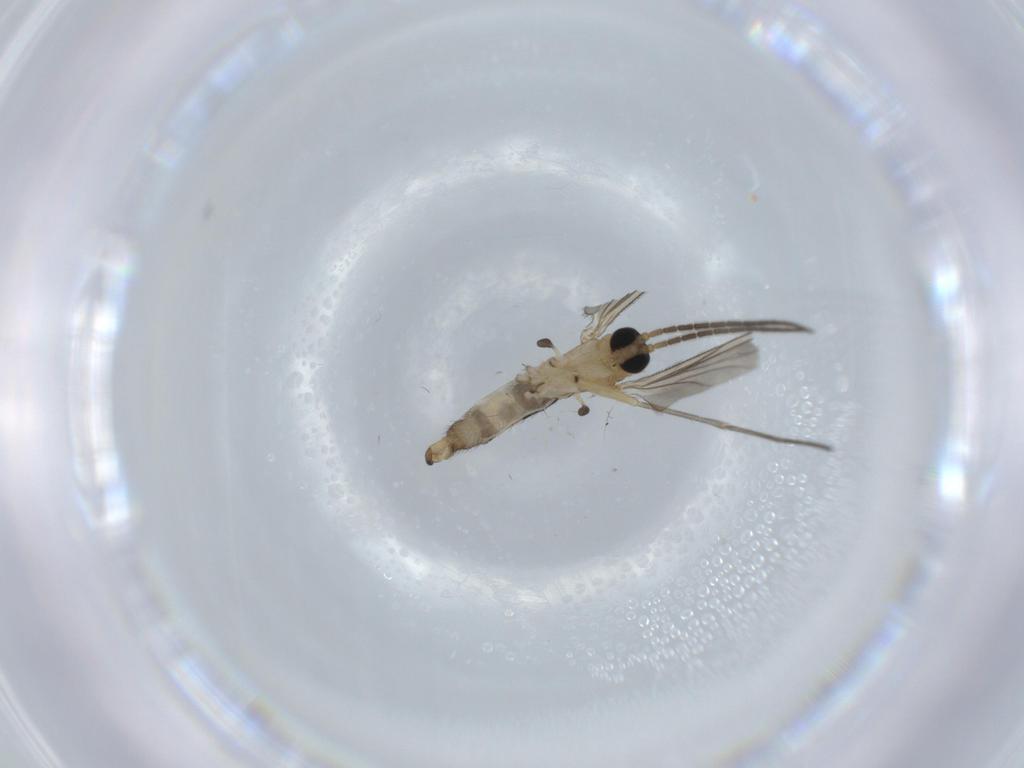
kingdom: Animalia
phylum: Arthropoda
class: Insecta
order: Diptera
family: Sciaridae
